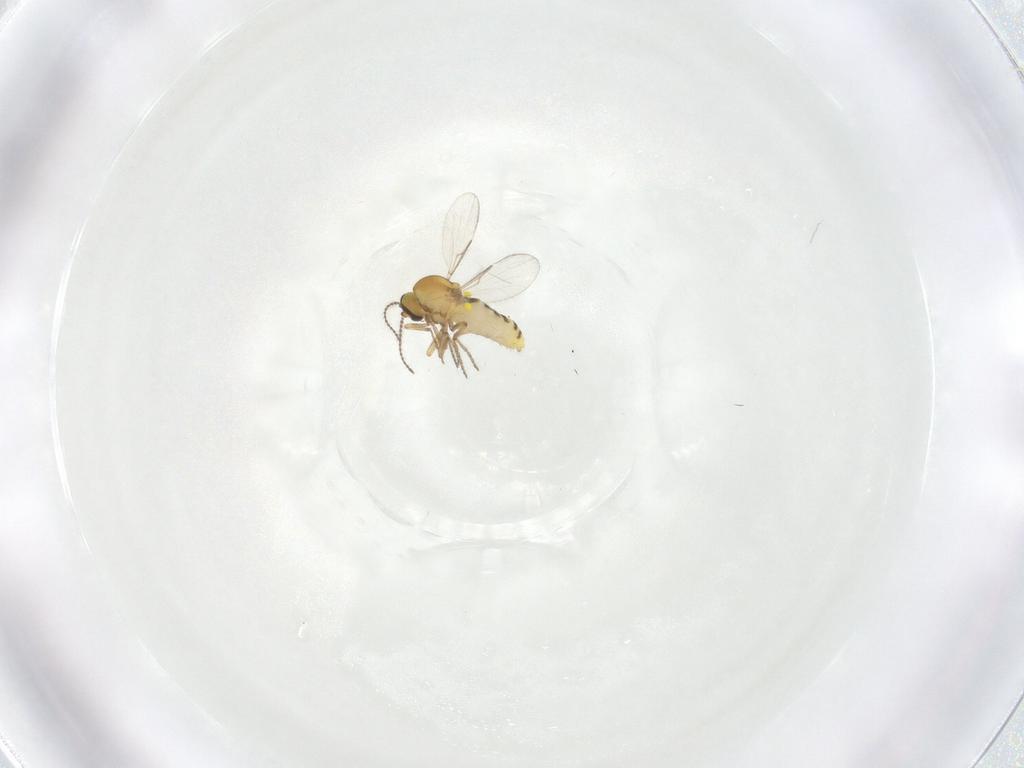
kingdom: Animalia
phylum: Arthropoda
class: Insecta
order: Diptera
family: Ceratopogonidae
